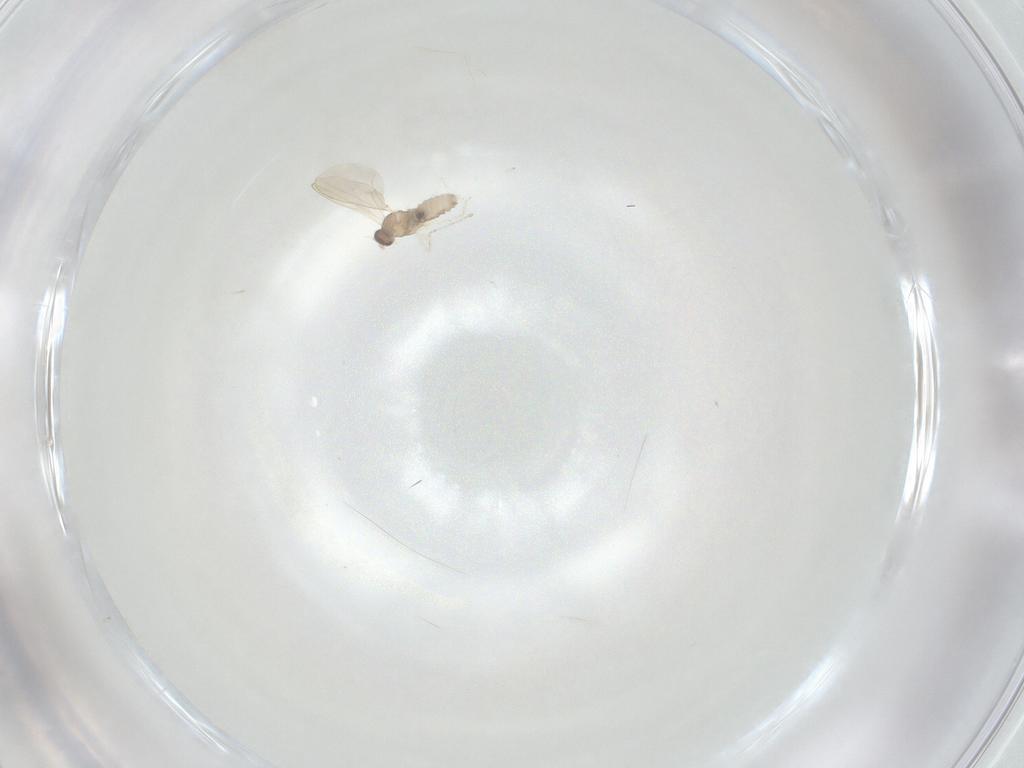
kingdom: Animalia
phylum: Arthropoda
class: Insecta
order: Diptera
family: Cecidomyiidae
